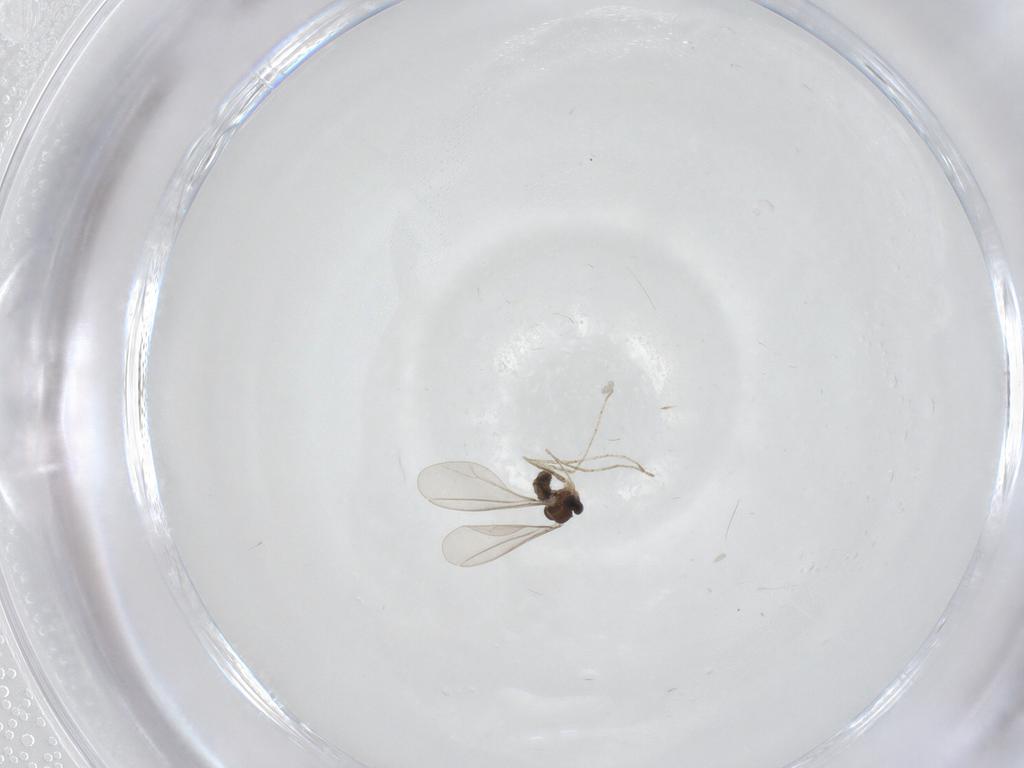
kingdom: Animalia
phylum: Arthropoda
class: Insecta
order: Diptera
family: Cecidomyiidae
